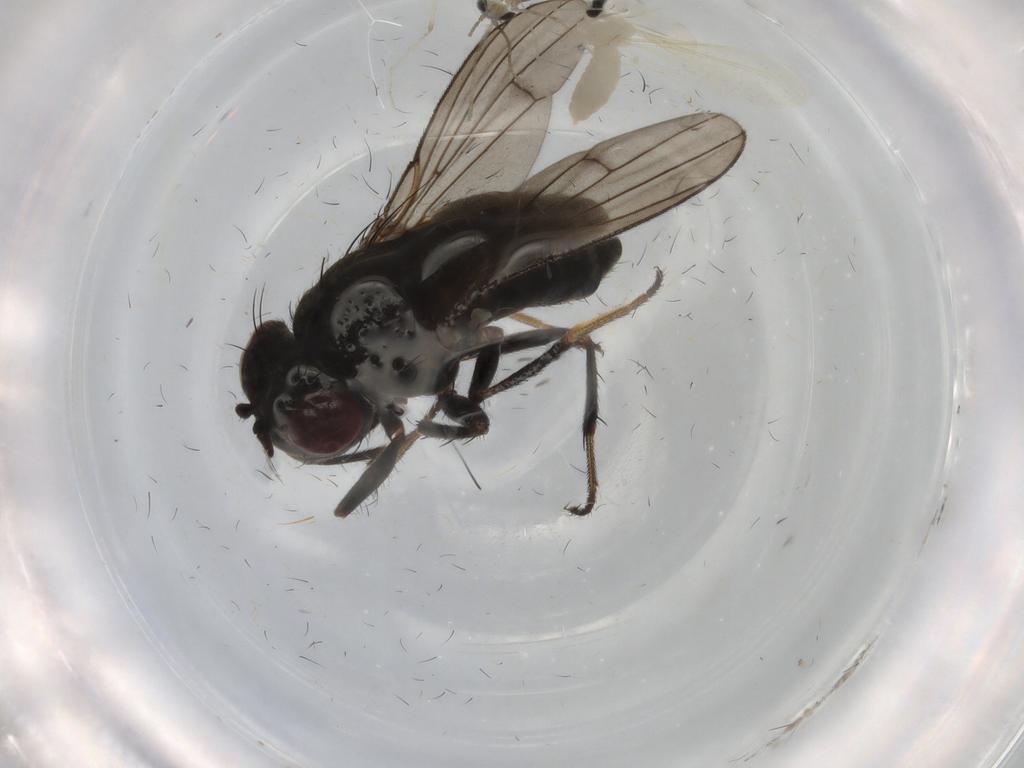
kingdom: Animalia
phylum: Arthropoda
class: Insecta
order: Diptera
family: Ephydridae
